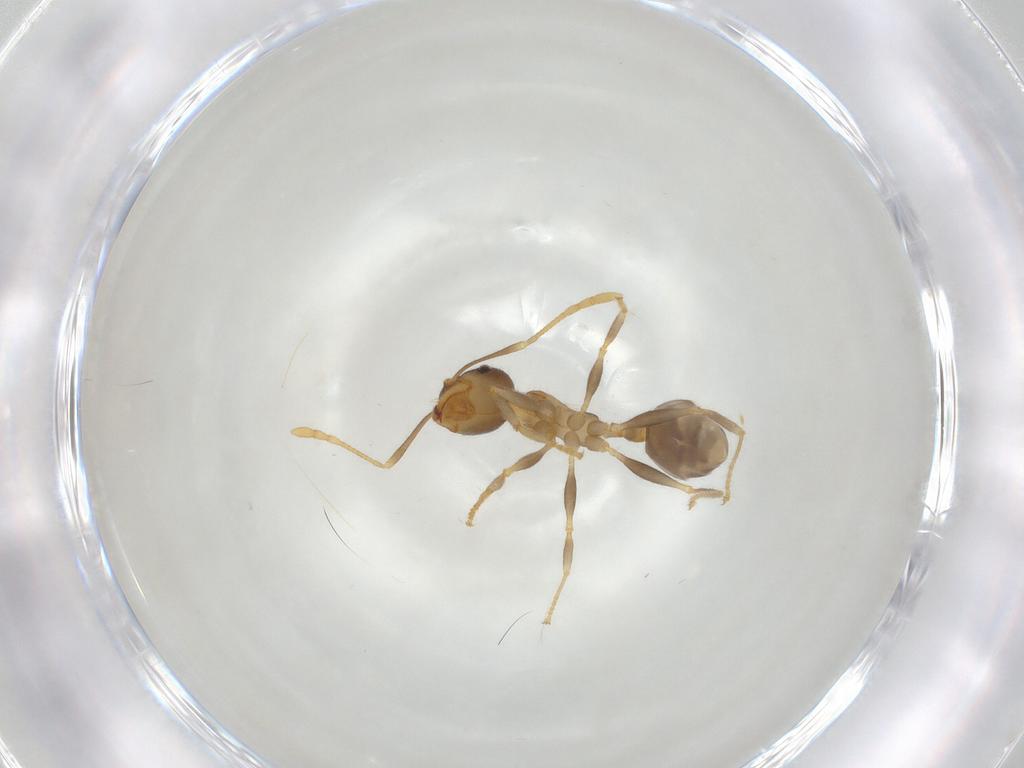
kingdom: Animalia
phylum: Arthropoda
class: Insecta
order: Hymenoptera
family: Formicidae
